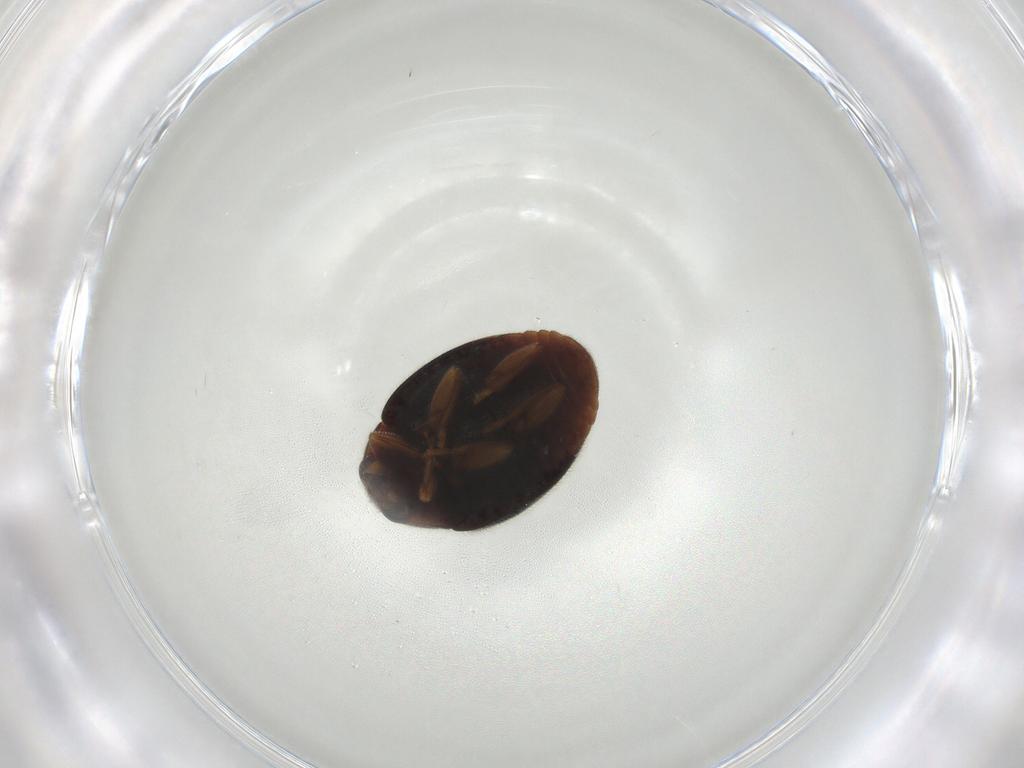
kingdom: Animalia
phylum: Arthropoda
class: Insecta
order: Coleoptera
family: Coccinellidae
